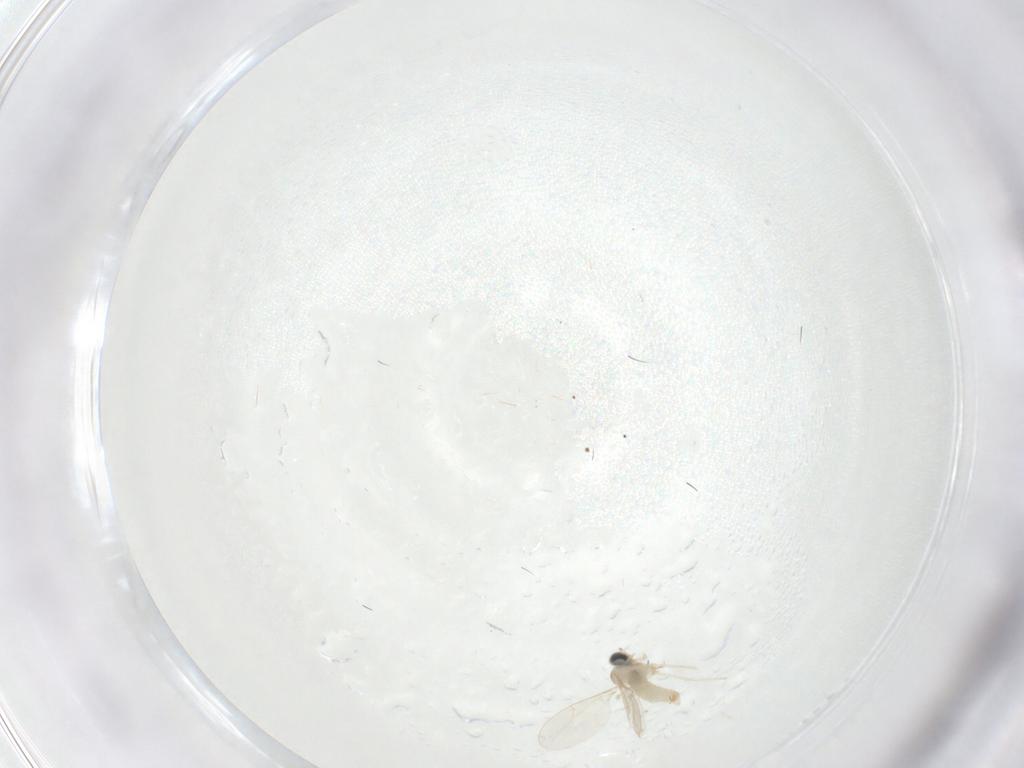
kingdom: Animalia
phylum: Arthropoda
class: Insecta
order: Diptera
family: Cecidomyiidae
